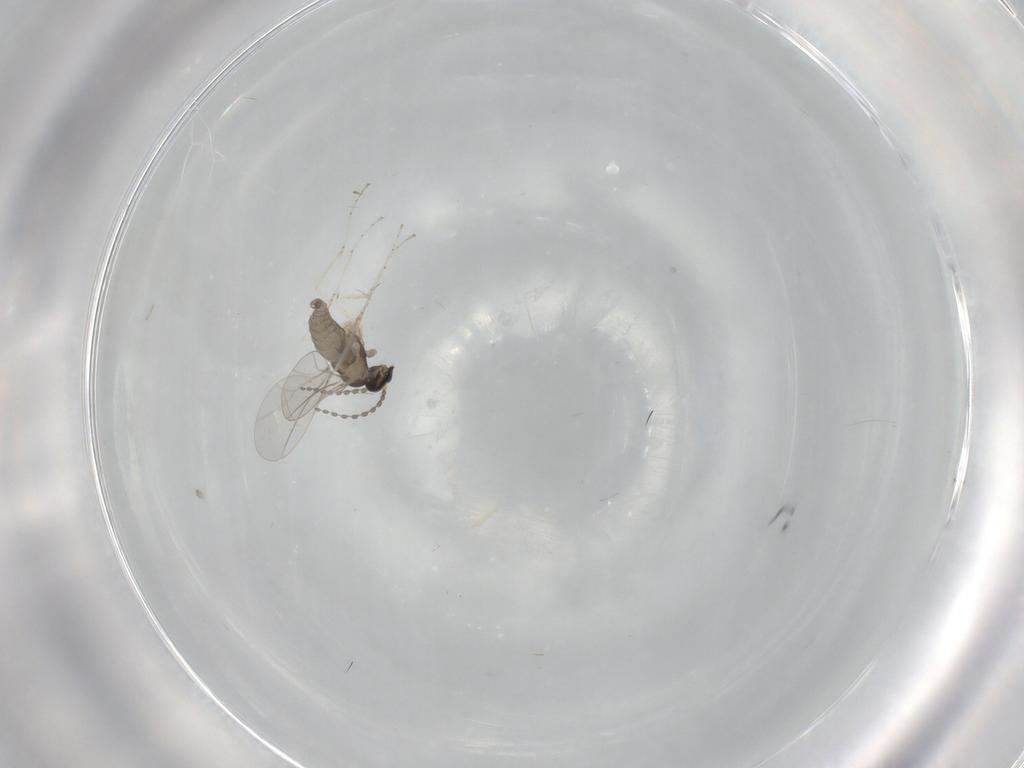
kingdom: Animalia
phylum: Arthropoda
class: Insecta
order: Diptera
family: Cecidomyiidae
